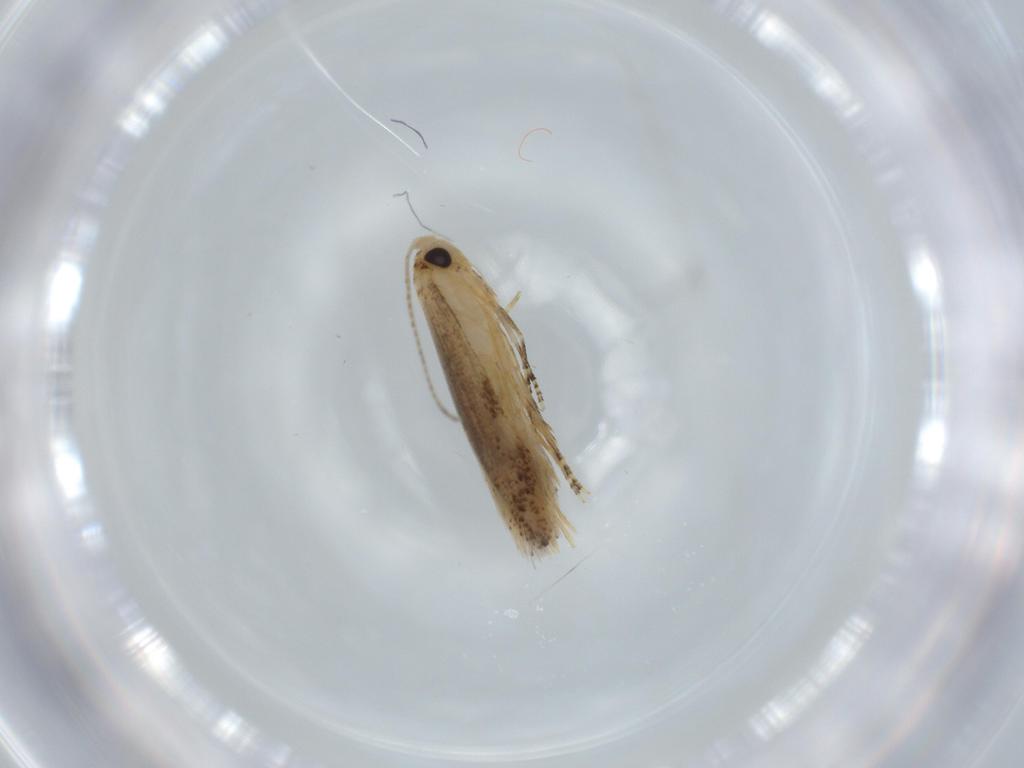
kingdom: Animalia
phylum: Arthropoda
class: Insecta
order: Lepidoptera
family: Bucculatricidae
